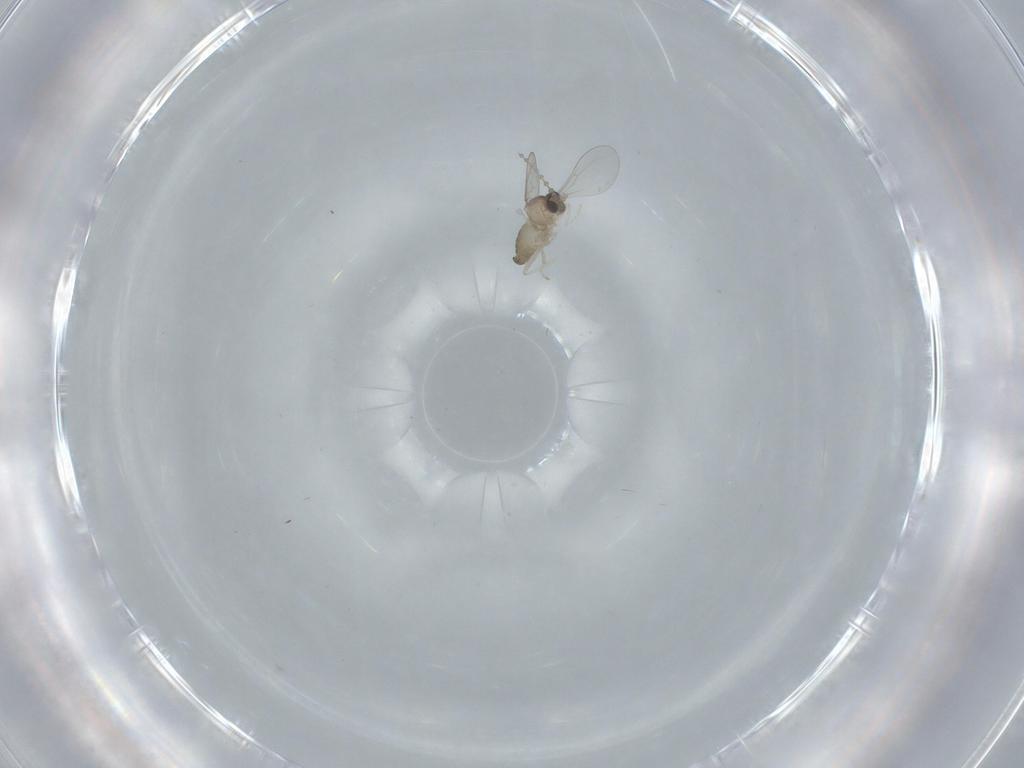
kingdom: Animalia
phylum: Arthropoda
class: Insecta
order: Diptera
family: Cecidomyiidae
